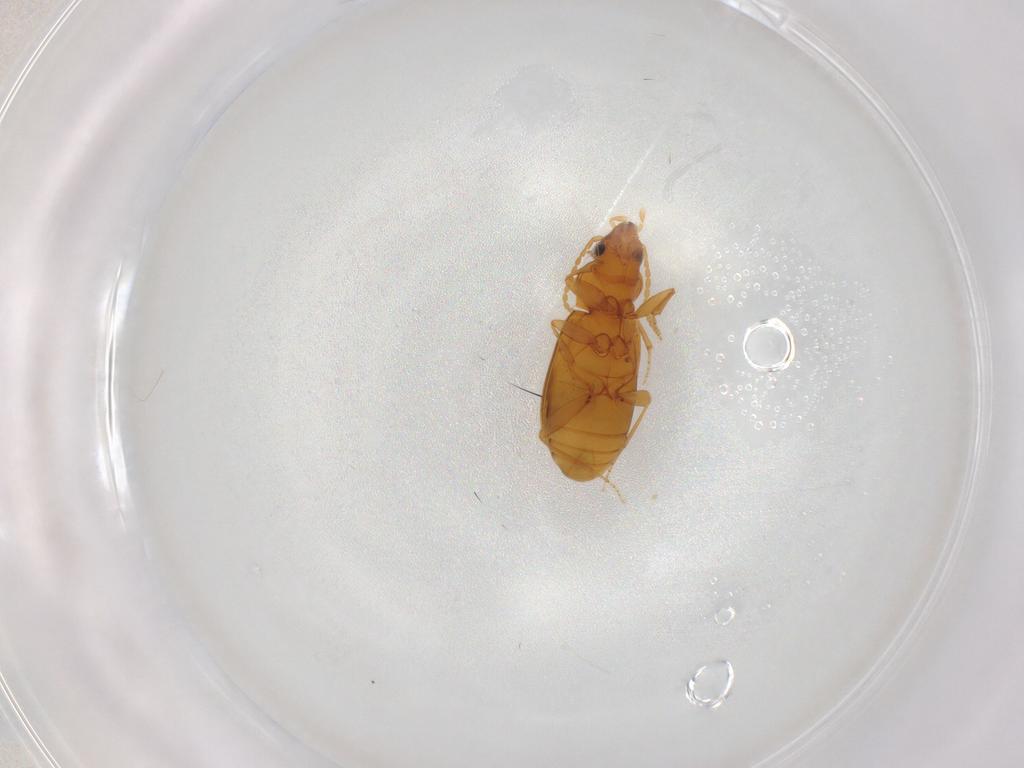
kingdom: Animalia
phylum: Arthropoda
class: Insecta
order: Coleoptera
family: Carabidae
